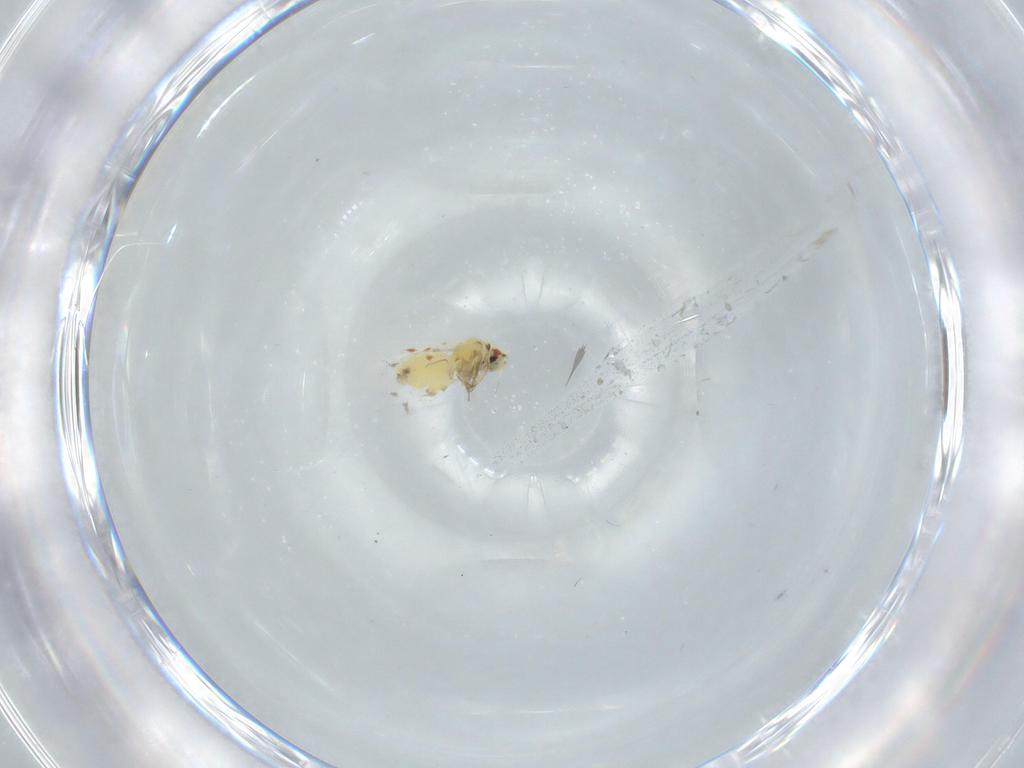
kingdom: Animalia
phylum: Arthropoda
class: Insecta
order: Hemiptera
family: Aleyrodidae
